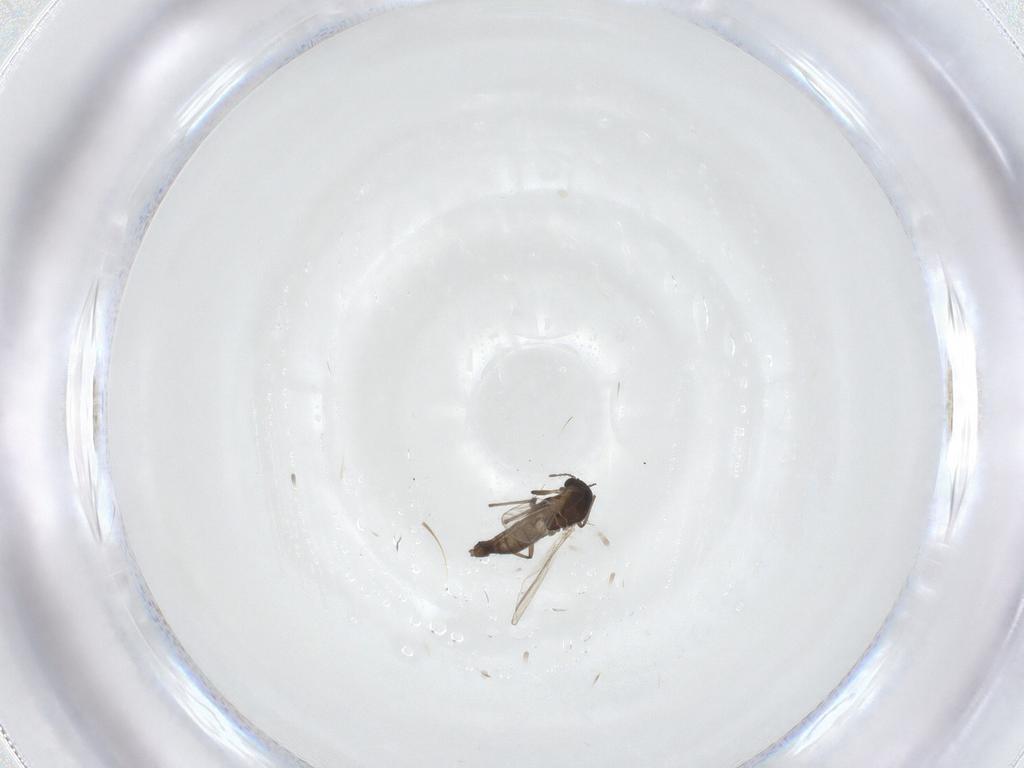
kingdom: Animalia
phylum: Arthropoda
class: Insecta
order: Diptera
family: Chironomidae
